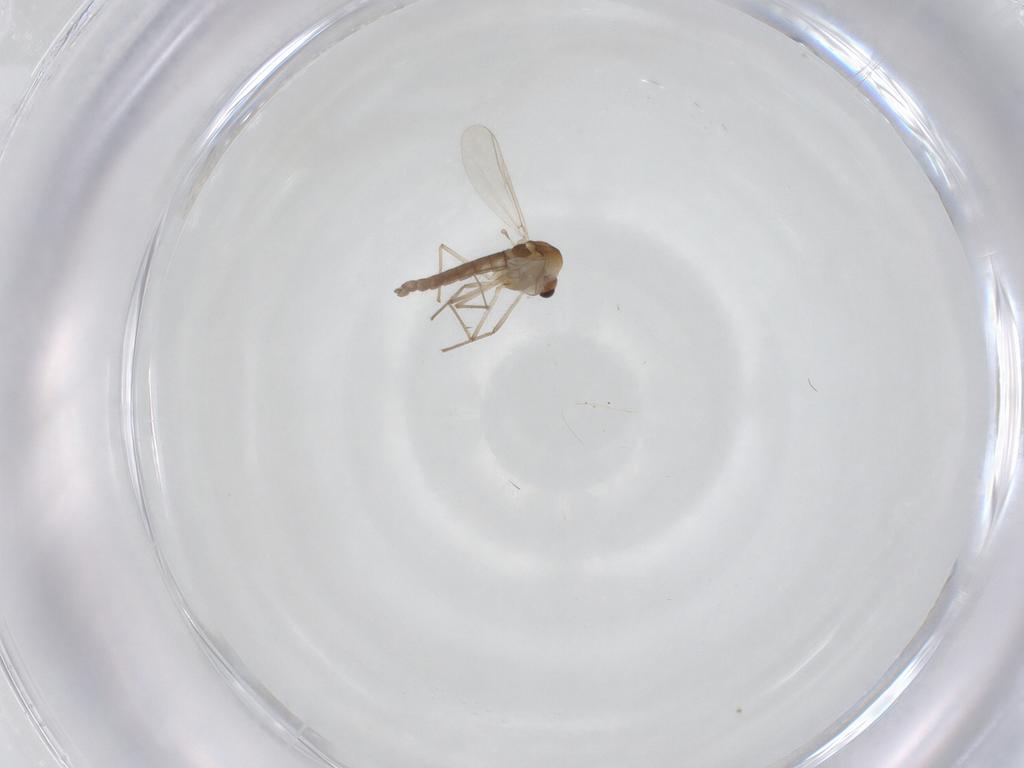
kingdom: Animalia
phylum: Arthropoda
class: Insecta
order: Diptera
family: Chironomidae
